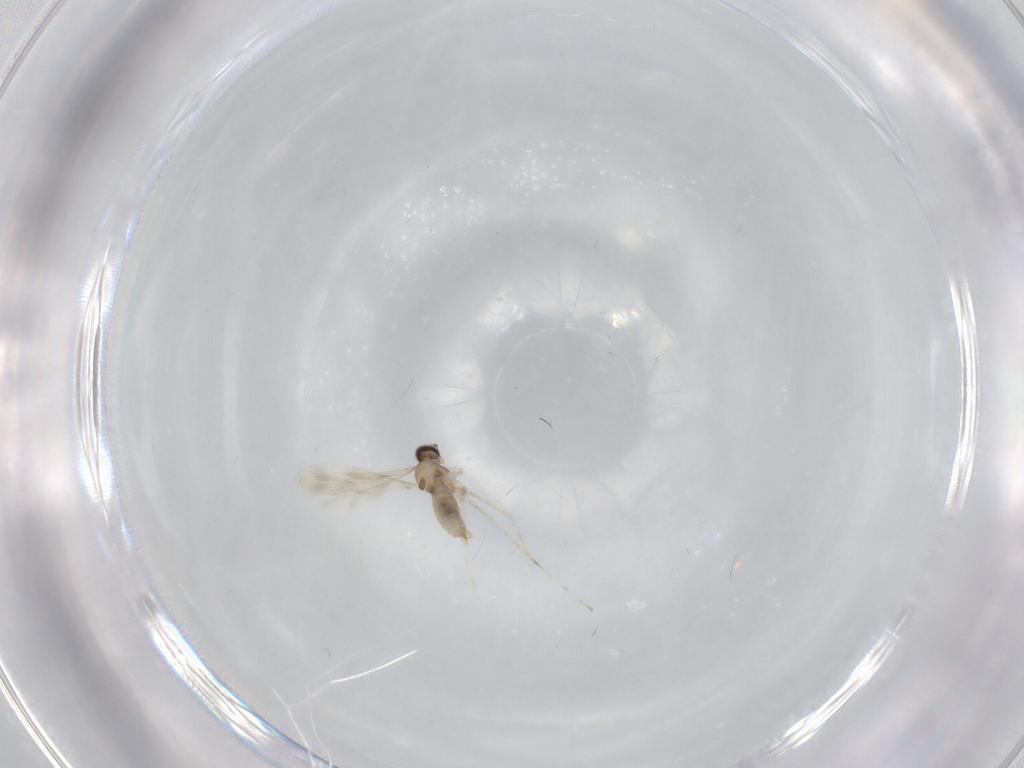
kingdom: Animalia
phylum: Arthropoda
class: Insecta
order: Diptera
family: Cecidomyiidae
